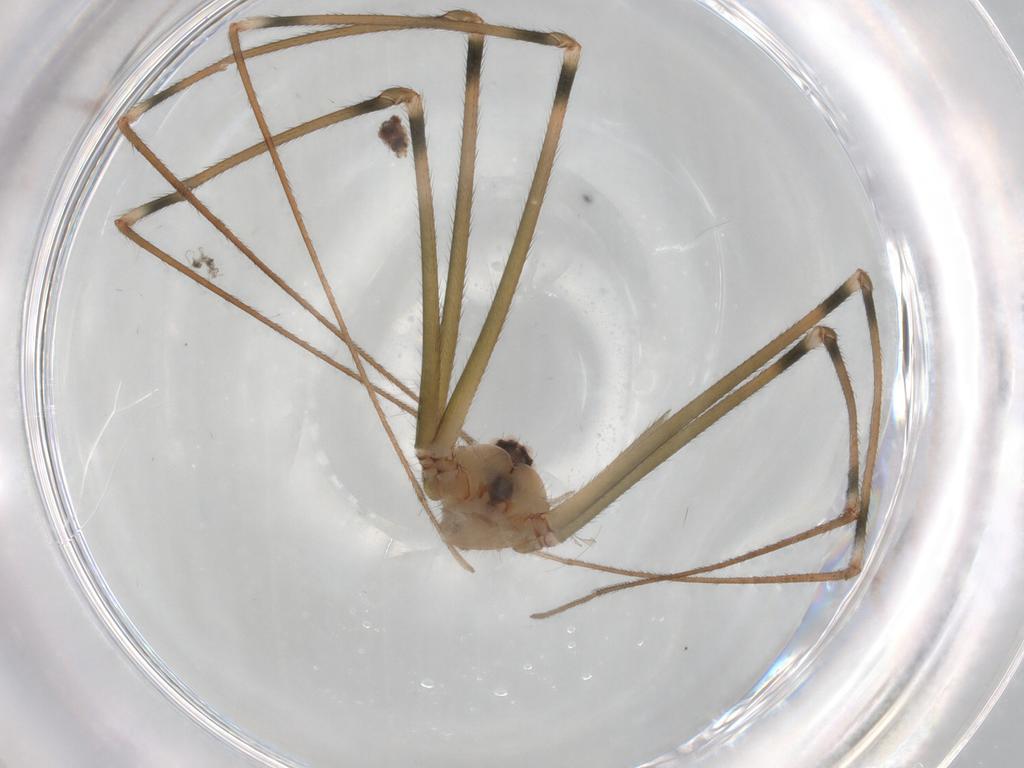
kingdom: Animalia
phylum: Arthropoda
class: Arachnida
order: Araneae
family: Pholcidae
